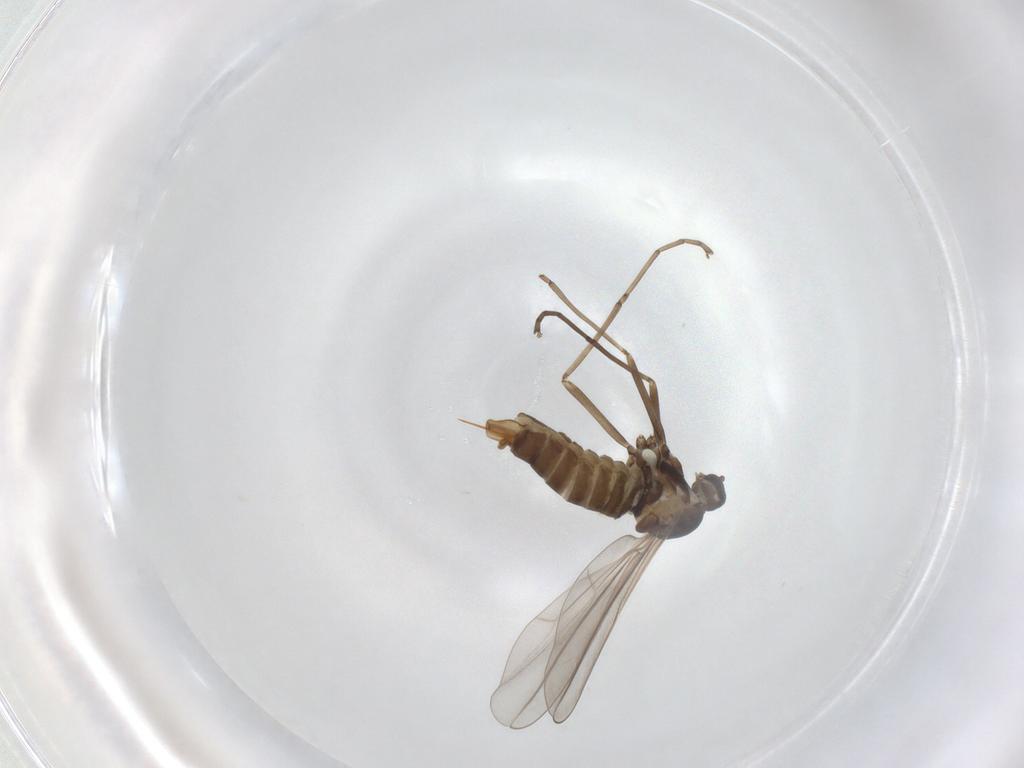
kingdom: Animalia
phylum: Arthropoda
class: Insecta
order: Diptera
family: Cecidomyiidae
